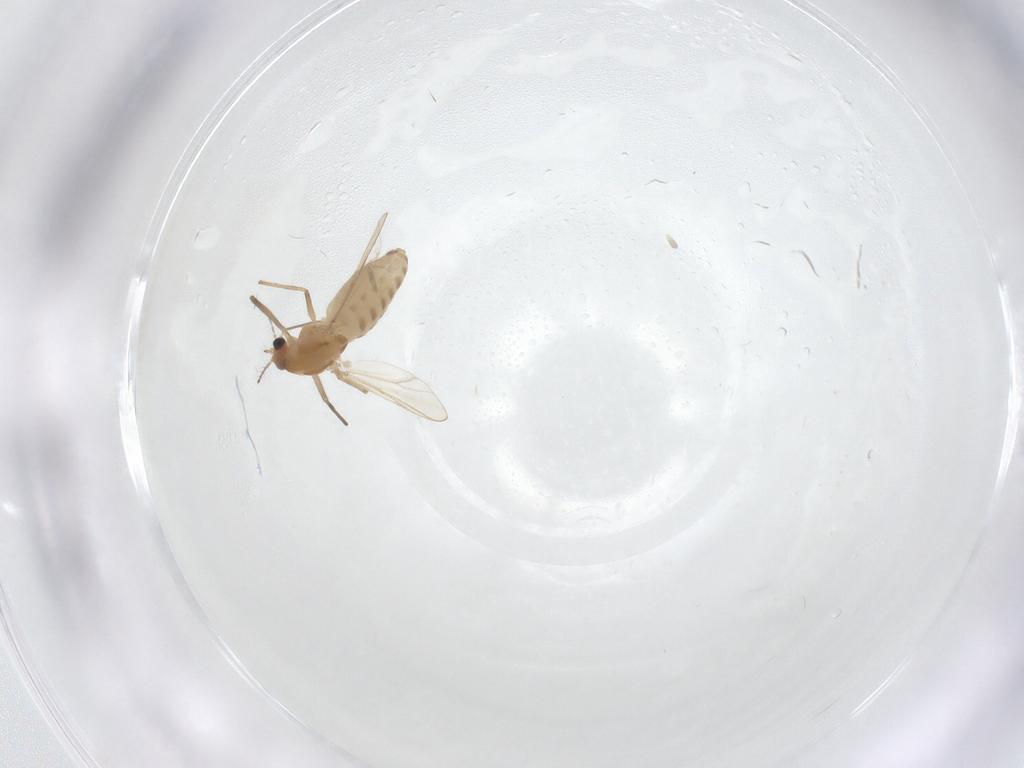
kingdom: Animalia
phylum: Arthropoda
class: Insecta
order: Diptera
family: Chironomidae
